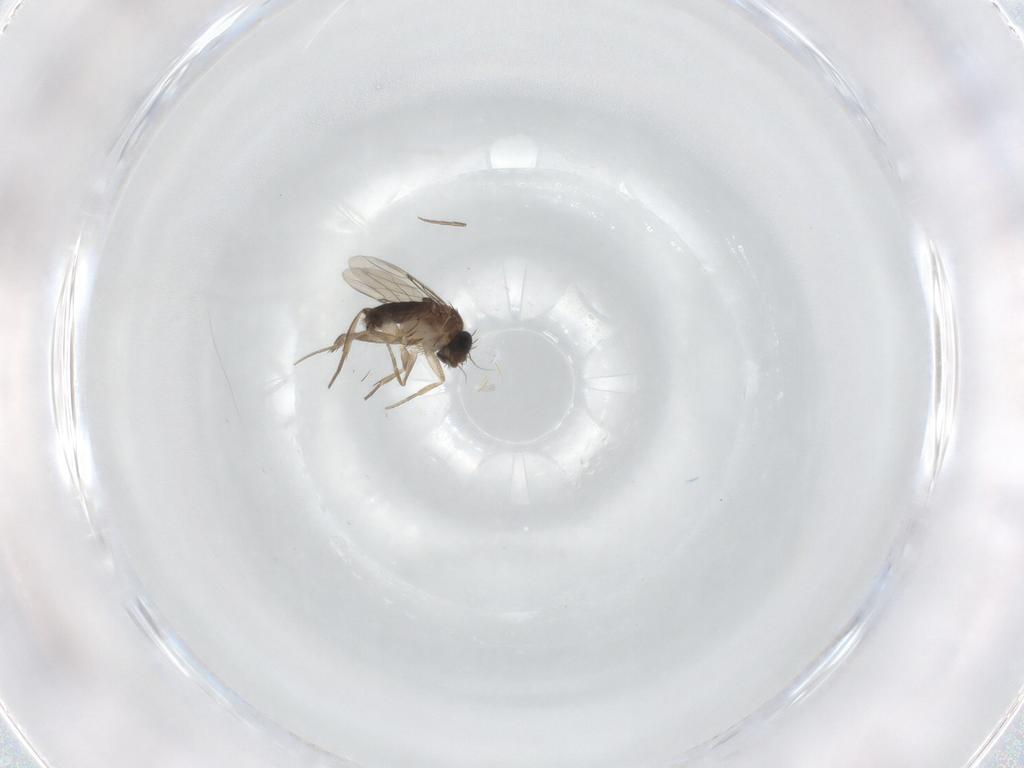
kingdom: Animalia
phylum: Arthropoda
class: Insecta
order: Diptera
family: Phoridae
